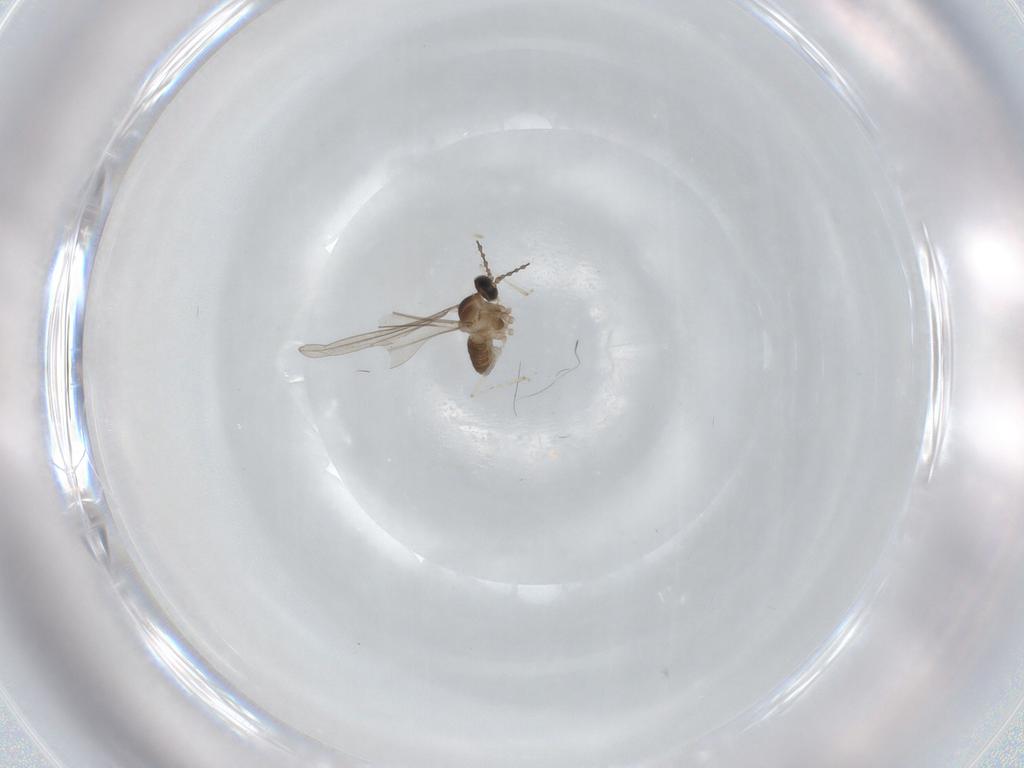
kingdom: Animalia
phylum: Arthropoda
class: Insecta
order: Diptera
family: Cecidomyiidae
